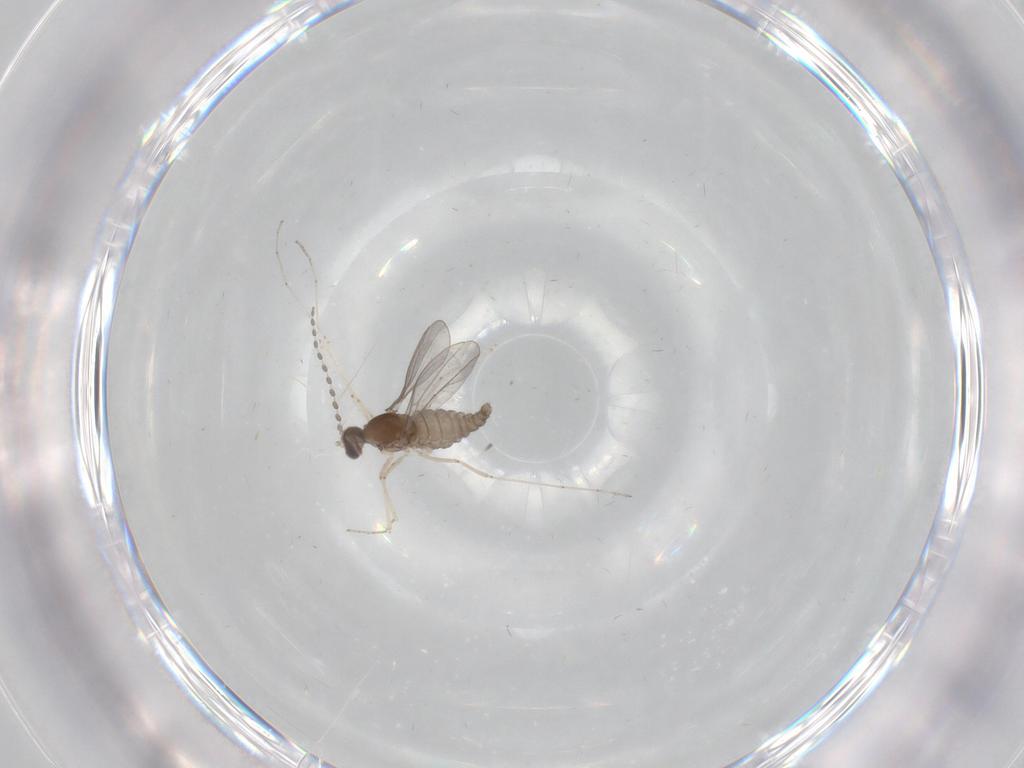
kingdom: Animalia
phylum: Arthropoda
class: Insecta
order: Diptera
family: Cecidomyiidae
